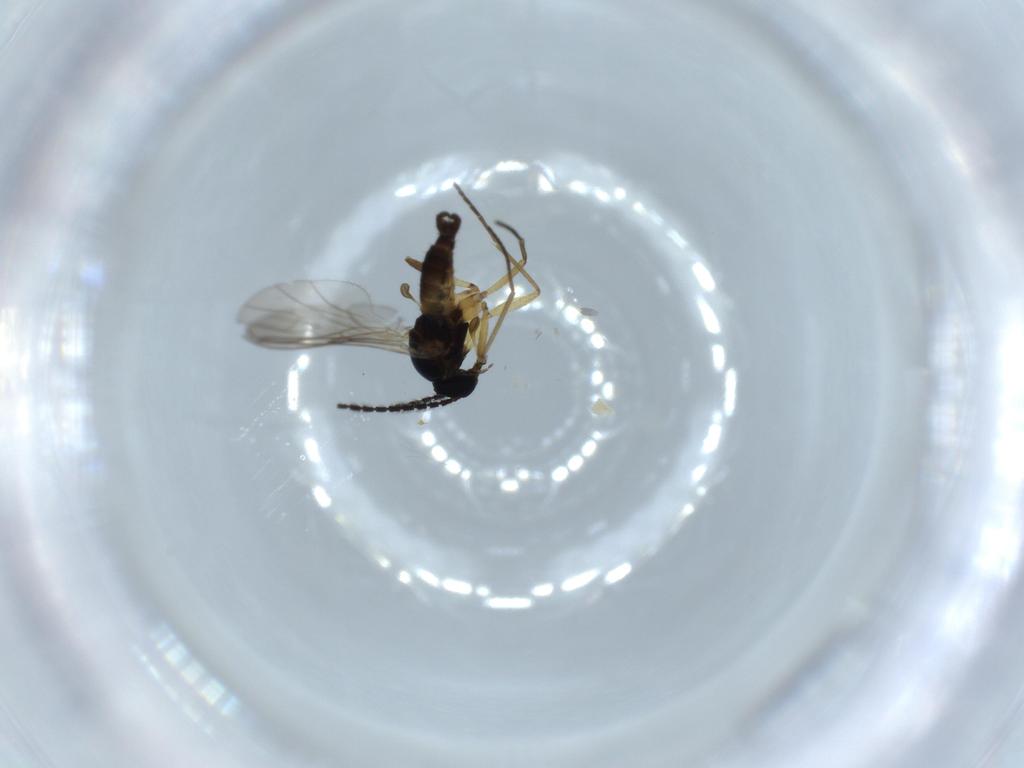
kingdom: Animalia
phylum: Arthropoda
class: Insecta
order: Diptera
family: Sciaridae
